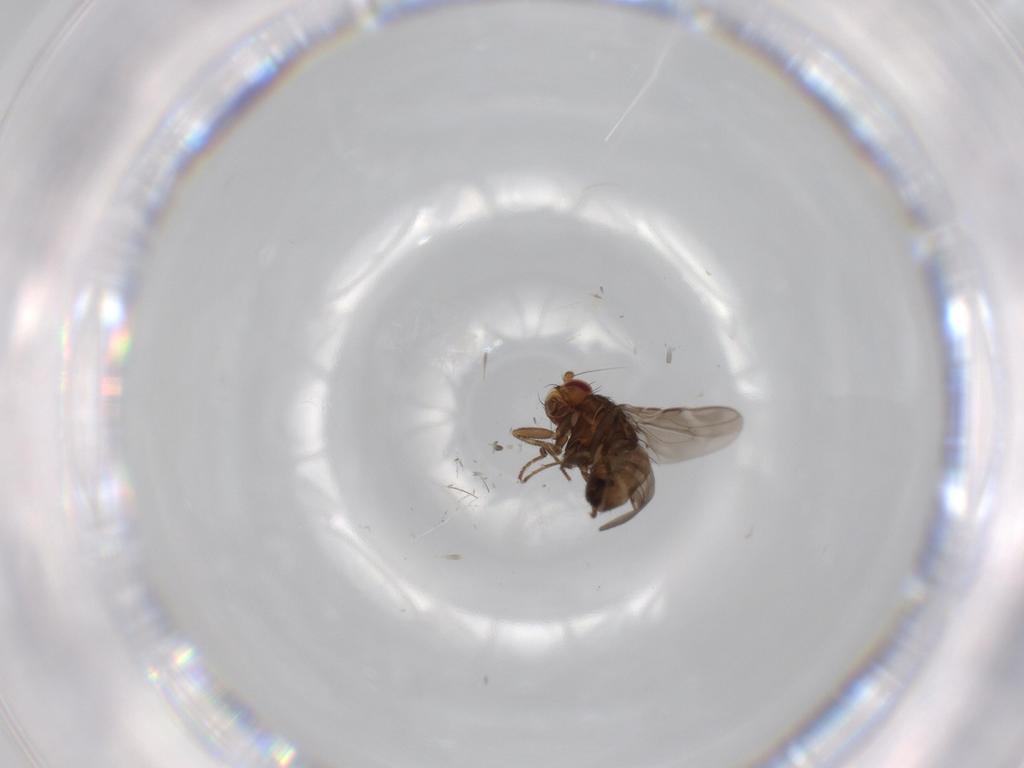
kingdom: Animalia
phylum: Arthropoda
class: Insecta
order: Diptera
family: Sphaeroceridae
